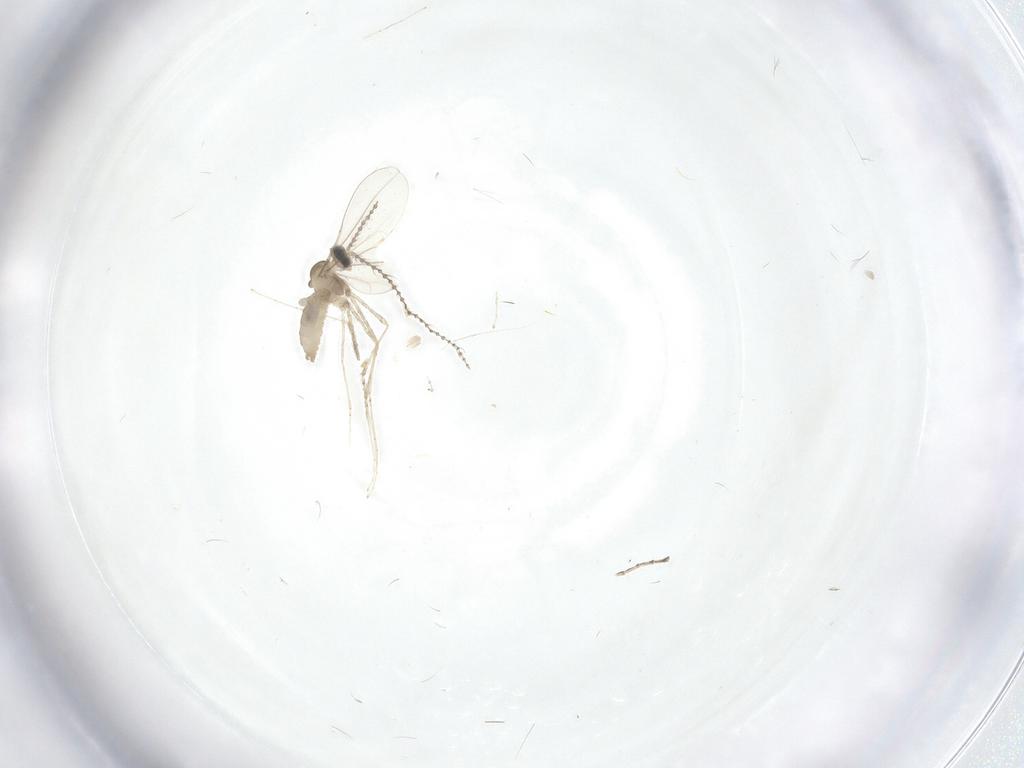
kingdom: Animalia
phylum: Arthropoda
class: Insecta
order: Diptera
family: Cecidomyiidae
